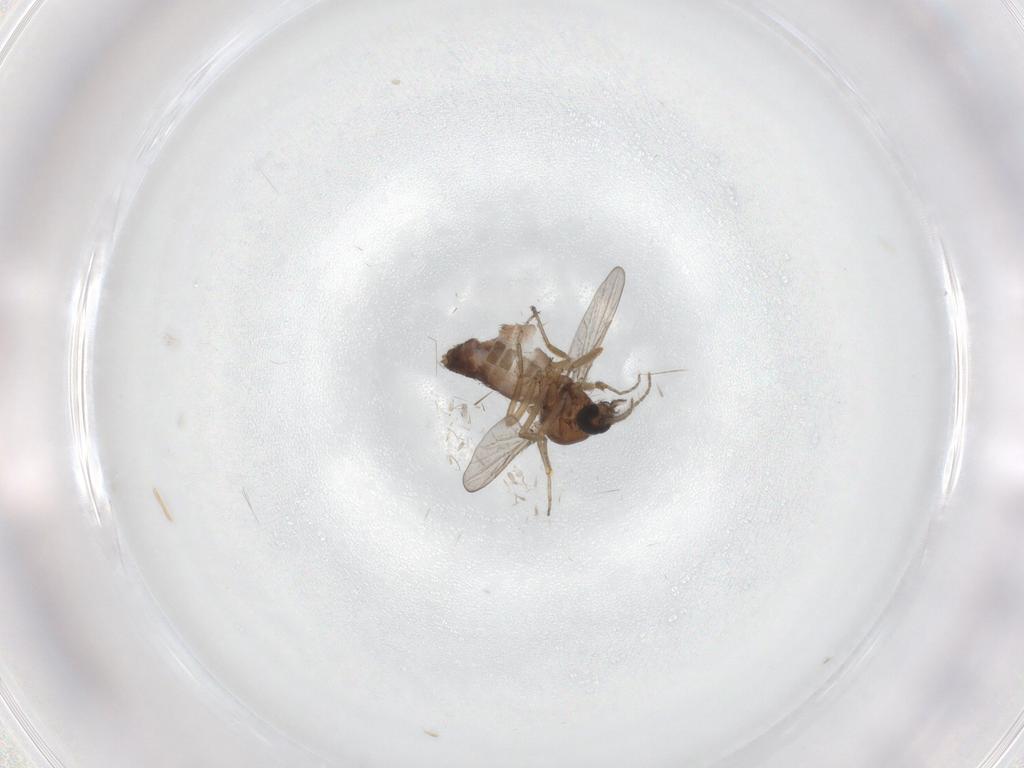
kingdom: Animalia
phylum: Arthropoda
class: Insecta
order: Diptera
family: Ceratopogonidae
